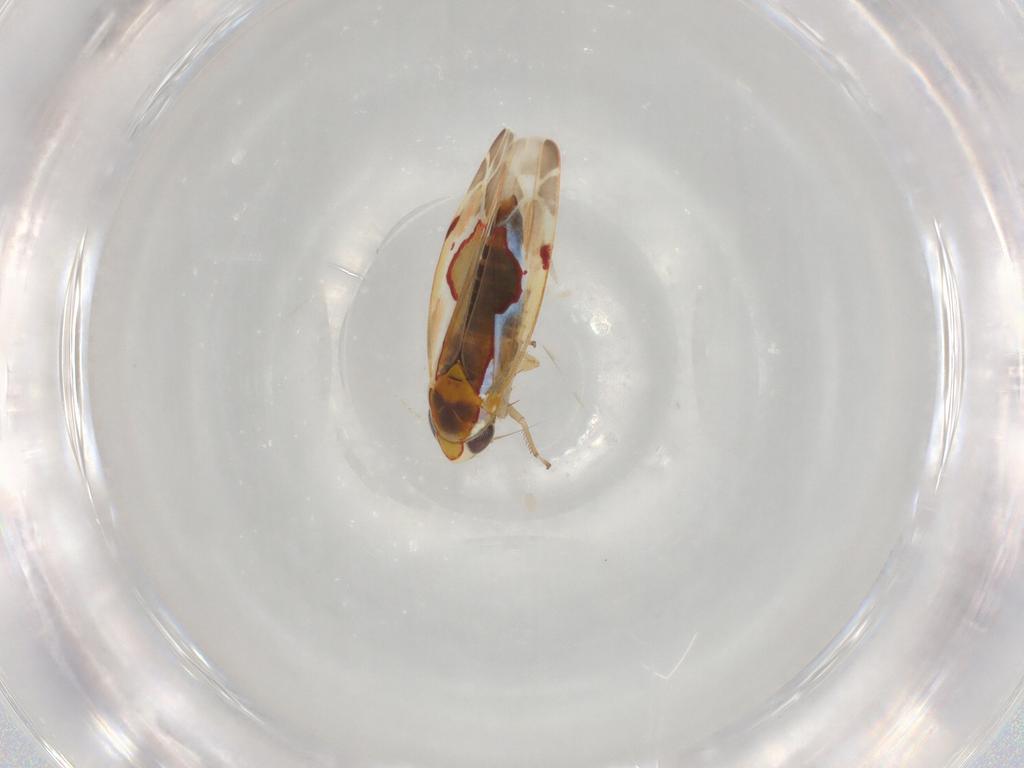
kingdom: Animalia
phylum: Arthropoda
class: Insecta
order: Hemiptera
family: Cicadellidae
